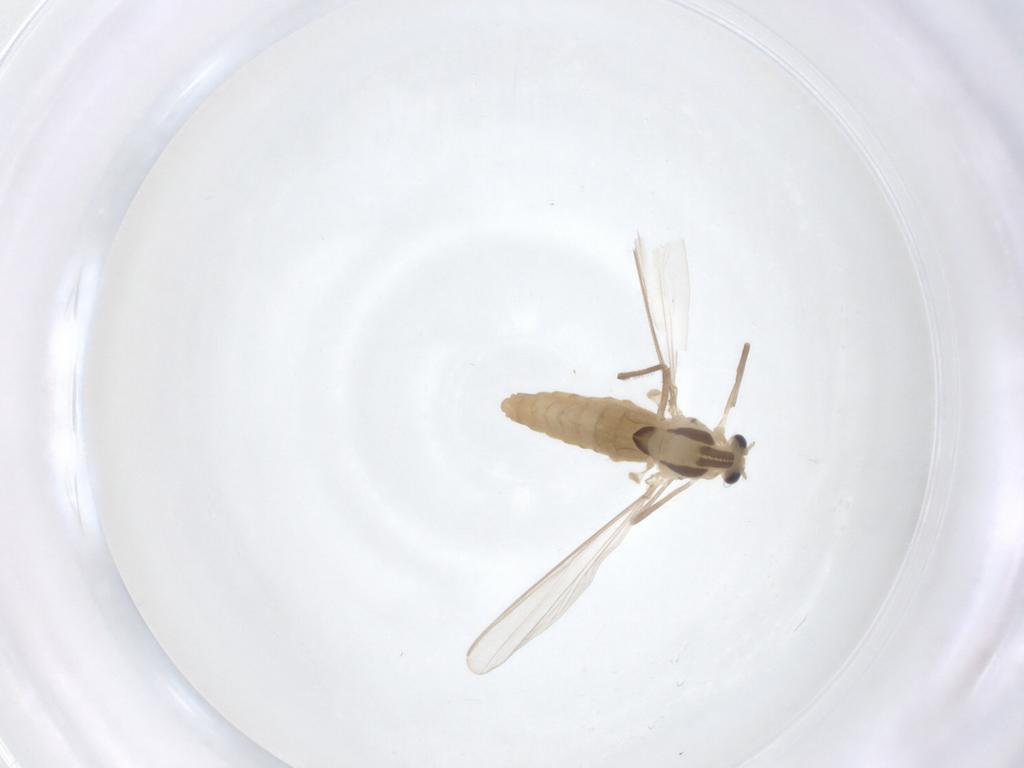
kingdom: Animalia
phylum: Arthropoda
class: Insecta
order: Diptera
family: Chironomidae
